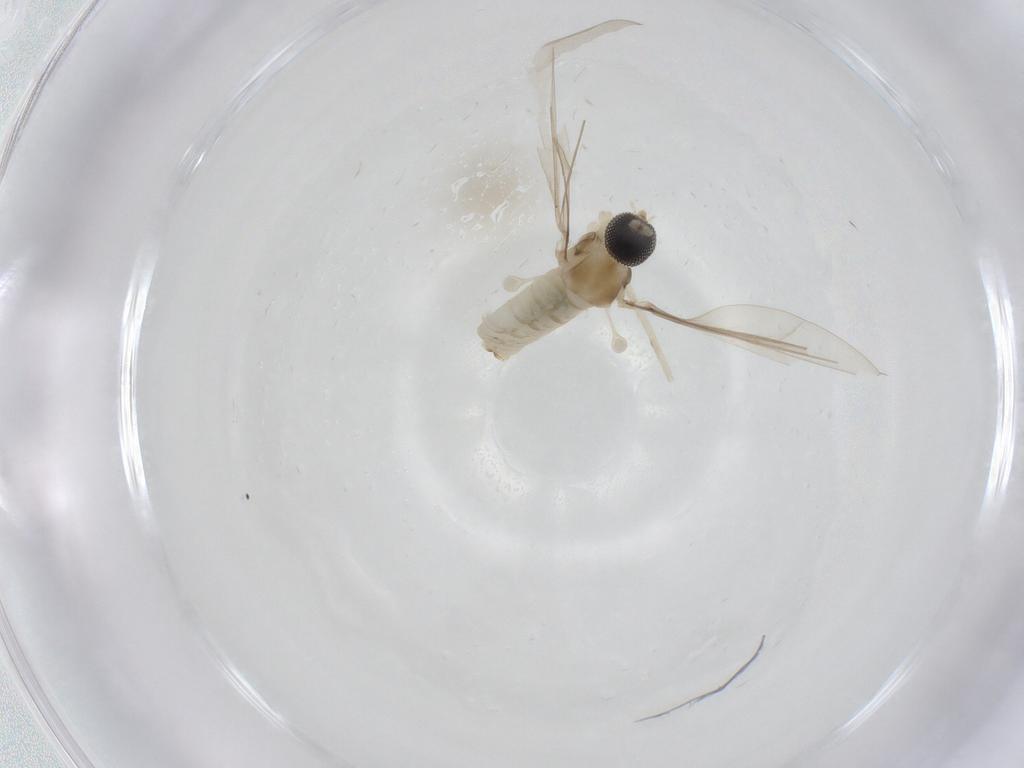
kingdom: Animalia
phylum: Arthropoda
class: Insecta
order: Diptera
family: Cecidomyiidae
